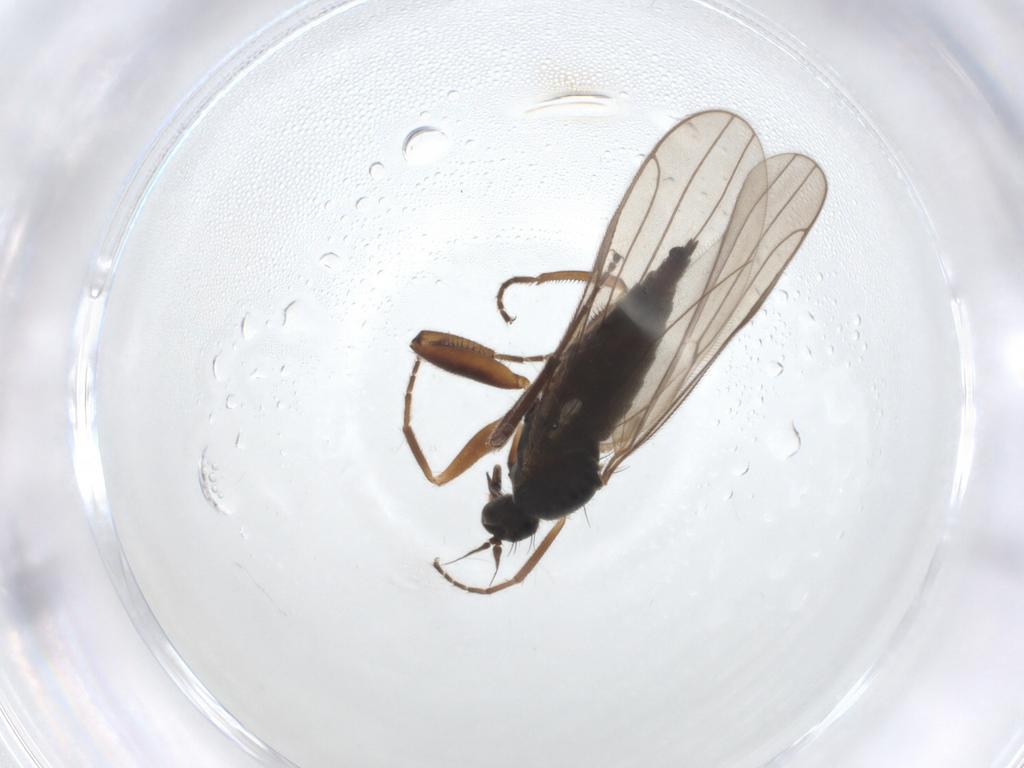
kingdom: Animalia
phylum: Arthropoda
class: Insecta
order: Diptera
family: Hybotidae
